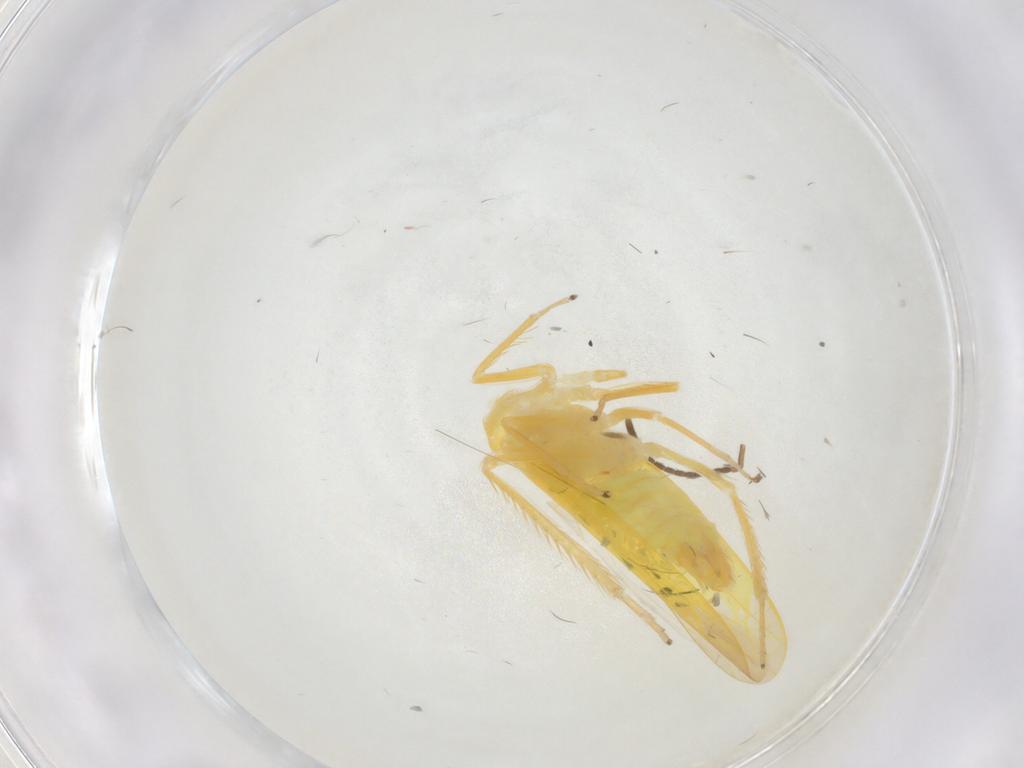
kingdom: Animalia
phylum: Arthropoda
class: Insecta
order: Hemiptera
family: Cicadellidae
